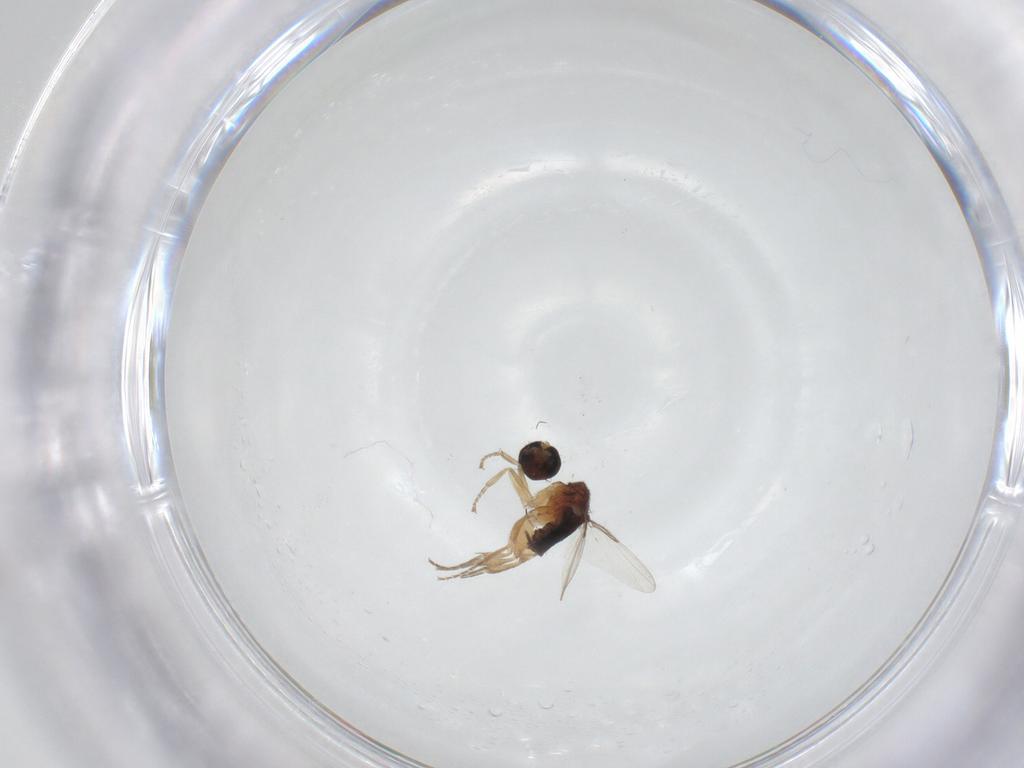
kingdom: Animalia
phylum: Arthropoda
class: Insecta
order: Diptera
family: Phoridae
